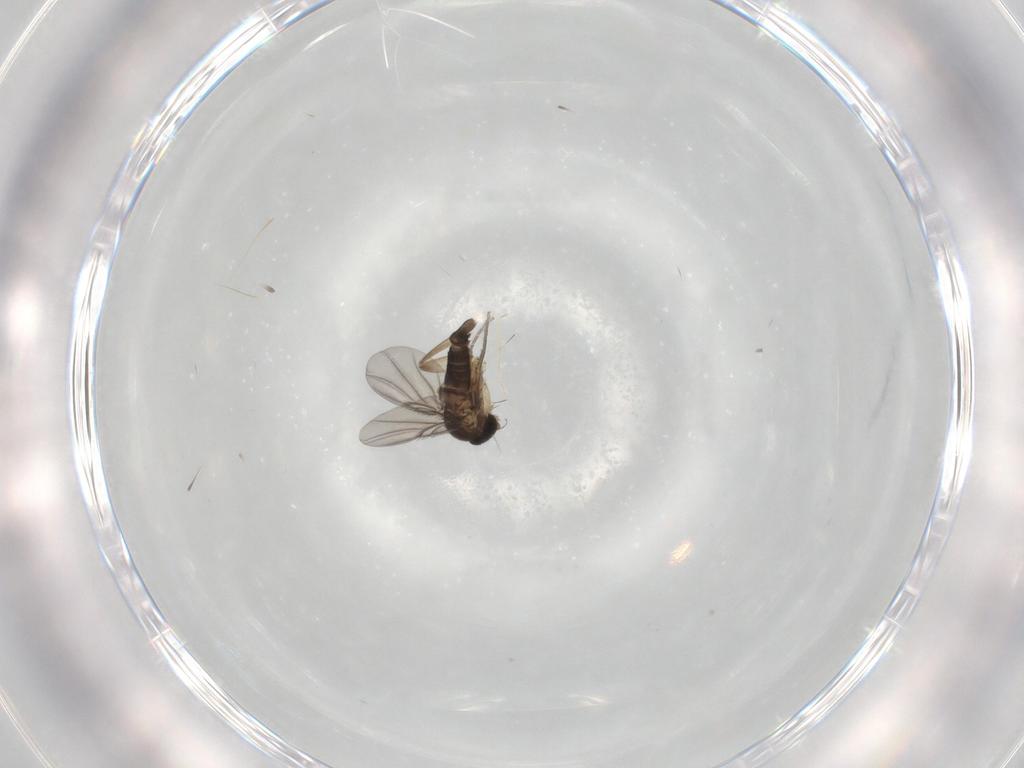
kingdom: Animalia
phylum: Arthropoda
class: Insecta
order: Diptera
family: Phoridae
